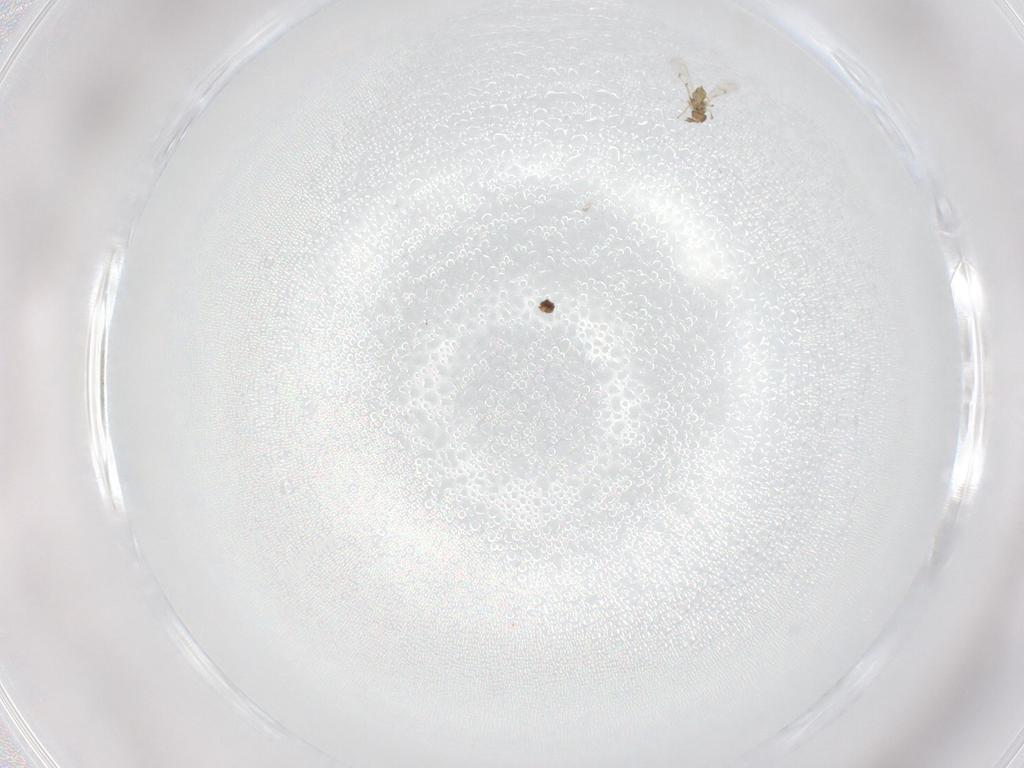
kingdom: Animalia
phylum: Arthropoda
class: Insecta
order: Hymenoptera
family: Eulophidae
